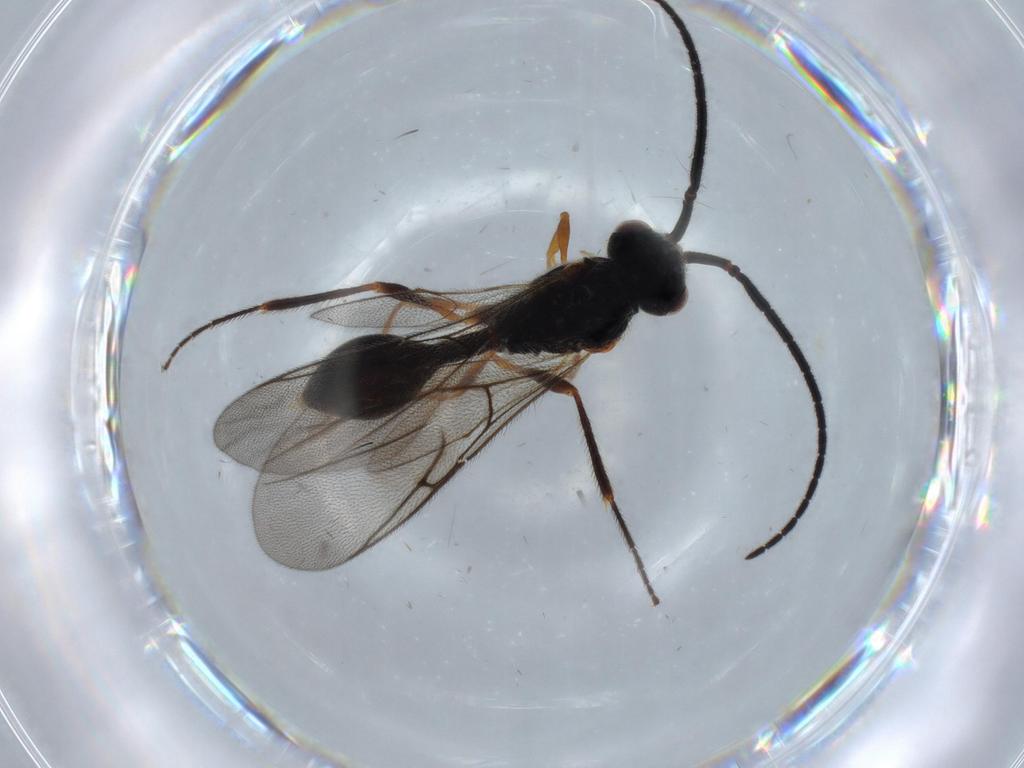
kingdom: Animalia
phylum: Arthropoda
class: Insecta
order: Hymenoptera
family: Diapriidae
